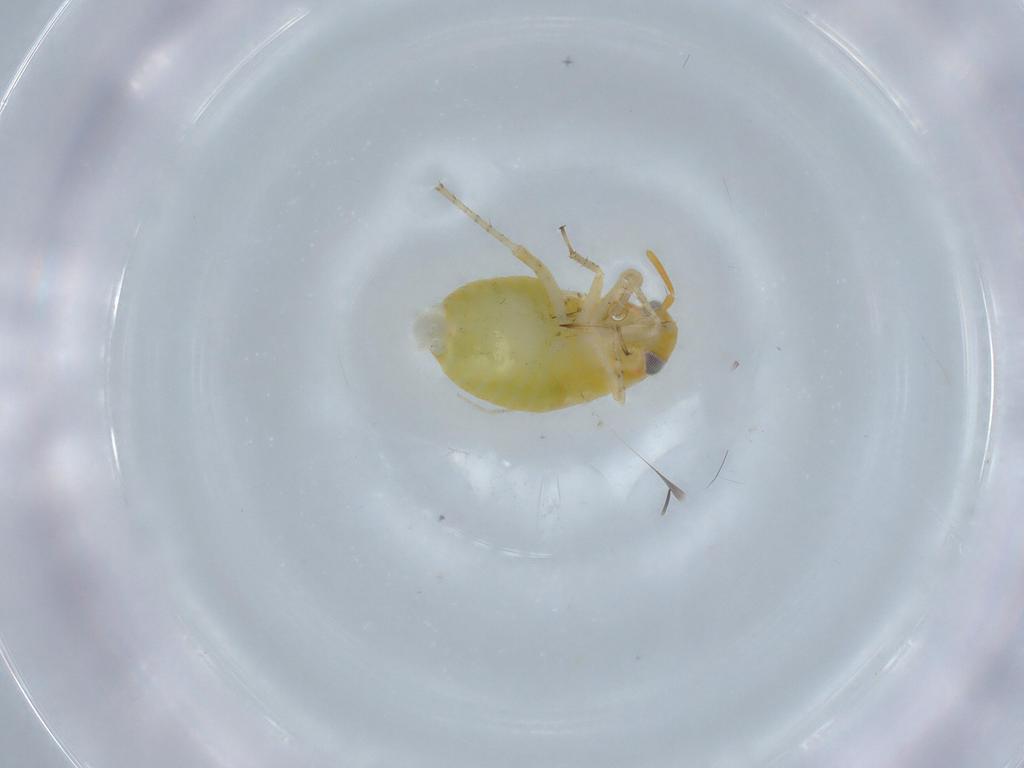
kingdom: Animalia
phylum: Arthropoda
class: Insecta
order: Hemiptera
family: Miridae
